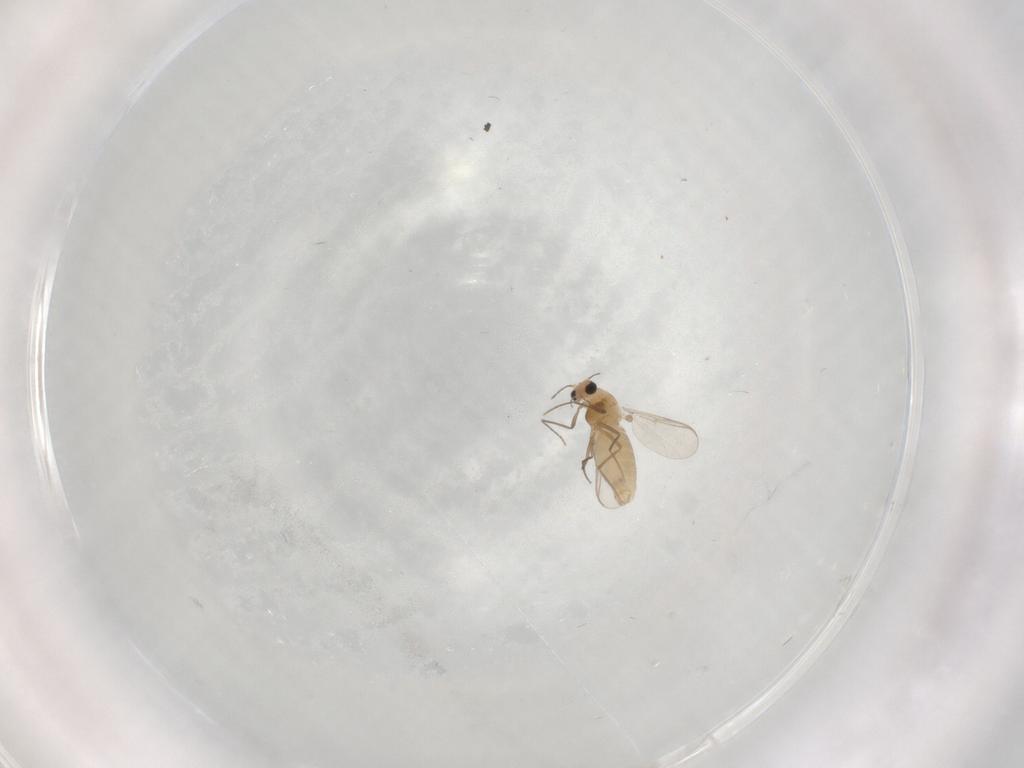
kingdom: Animalia
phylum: Arthropoda
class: Insecta
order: Diptera
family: Chironomidae
